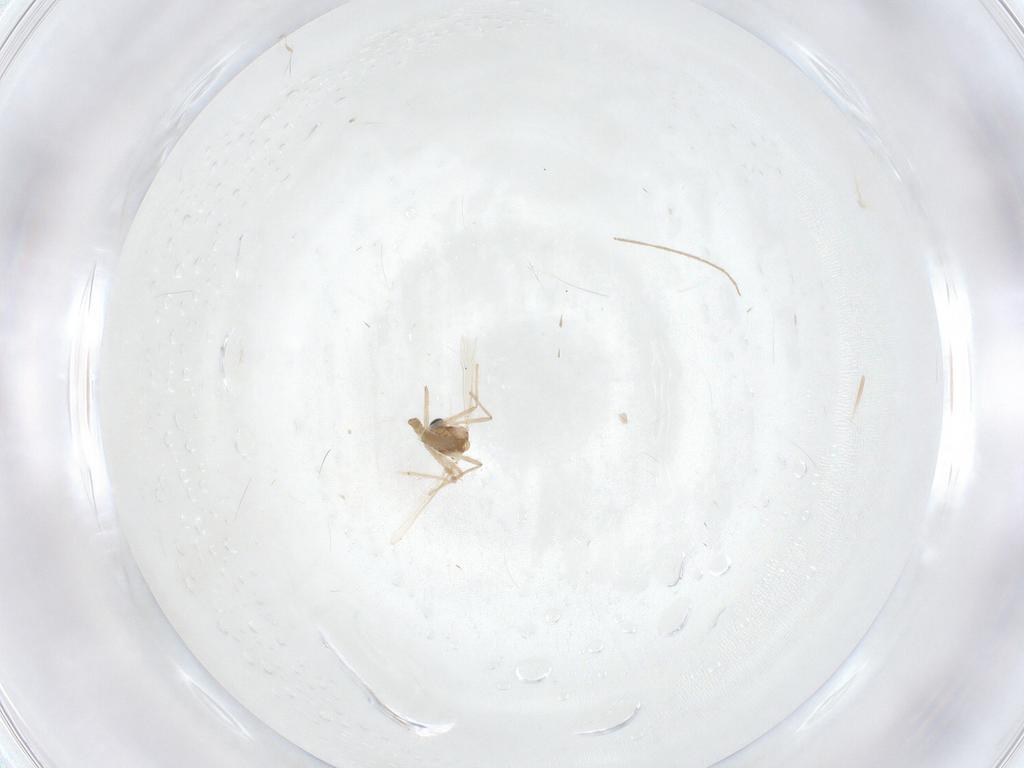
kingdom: Animalia
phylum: Arthropoda
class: Insecta
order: Diptera
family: Chironomidae
